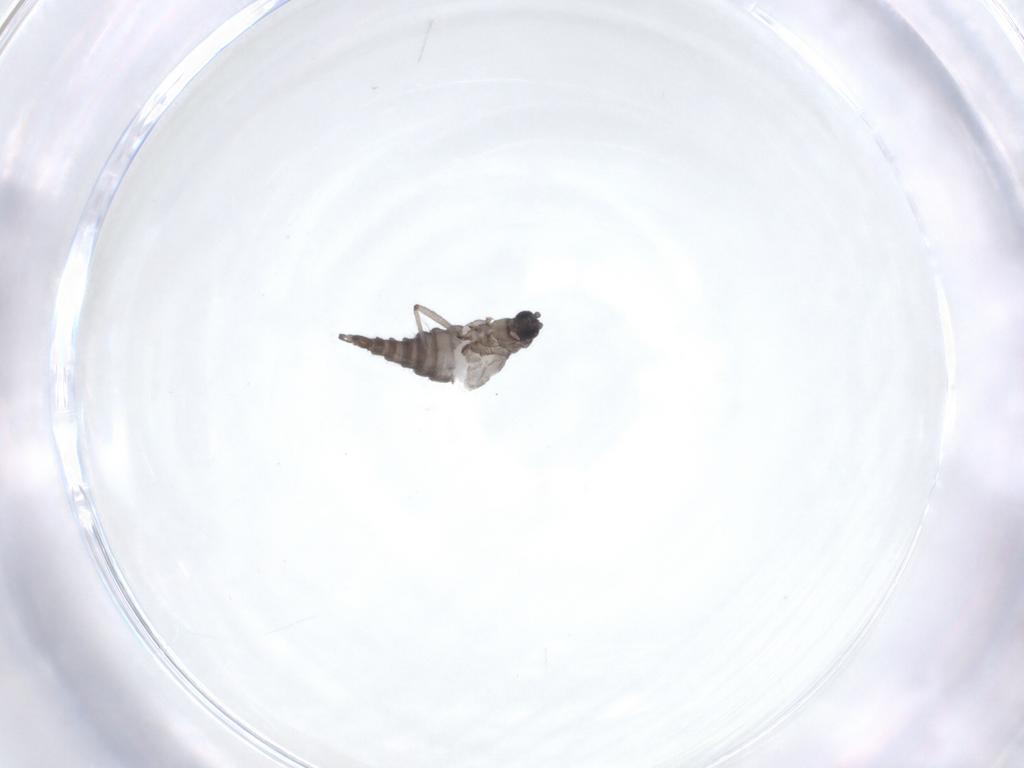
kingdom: Animalia
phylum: Arthropoda
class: Insecta
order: Diptera
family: Sciaridae
